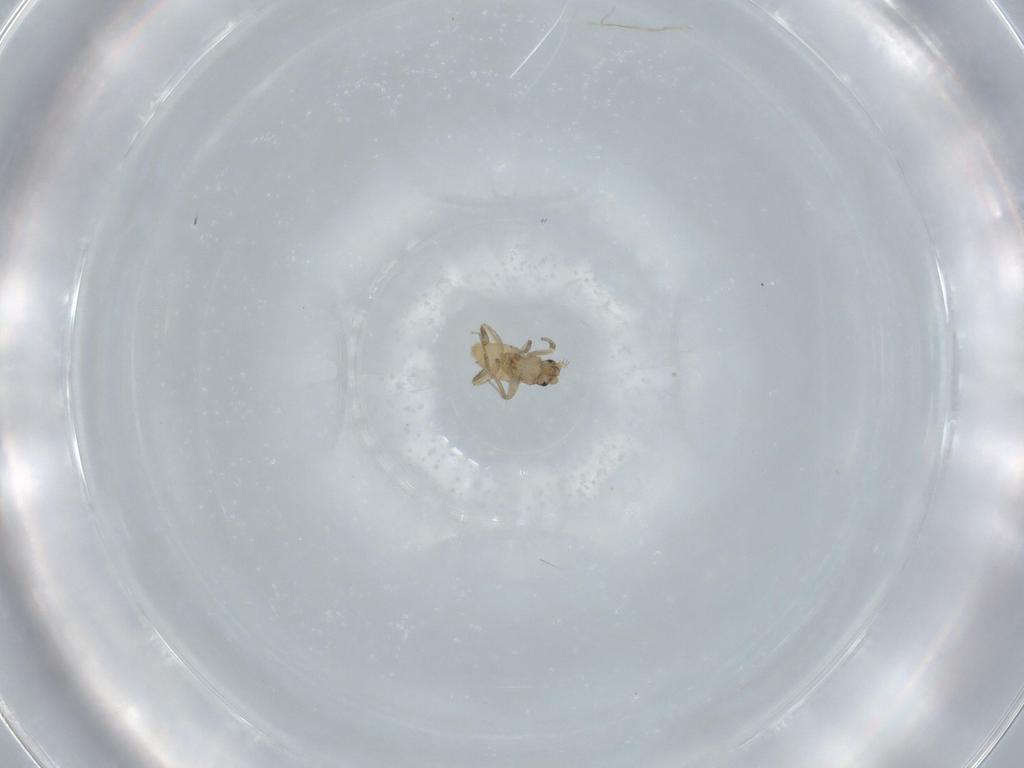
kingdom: Animalia
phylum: Arthropoda
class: Insecta
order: Diptera
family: Phoridae
